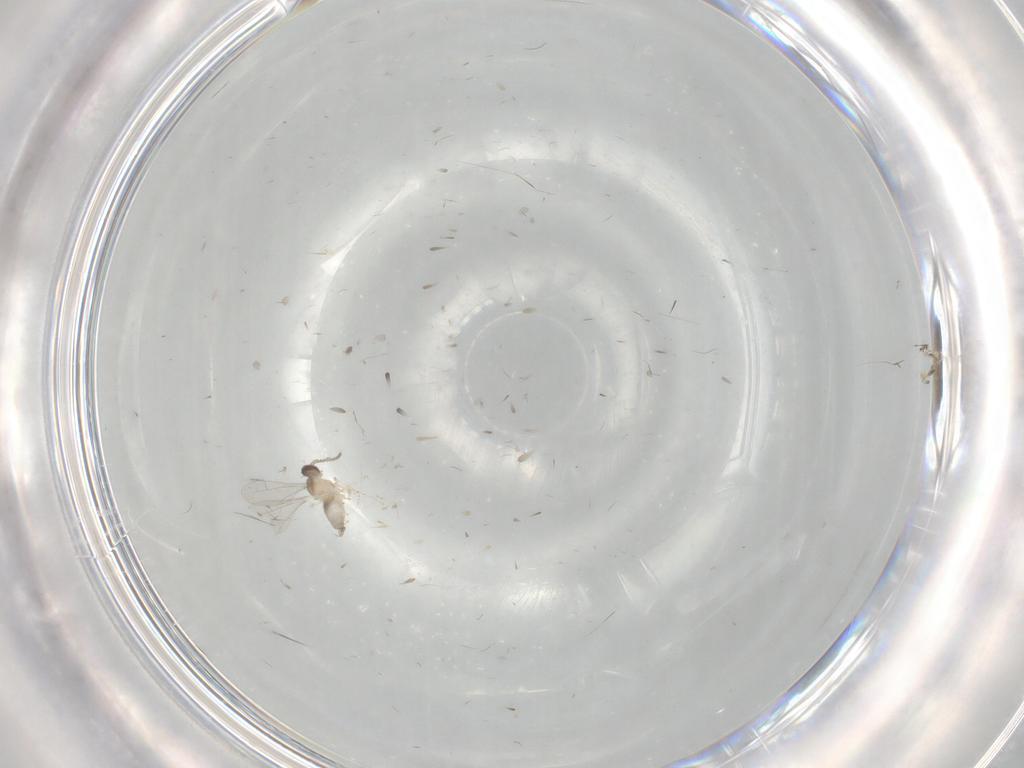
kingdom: Animalia
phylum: Arthropoda
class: Insecta
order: Diptera
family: Cecidomyiidae
